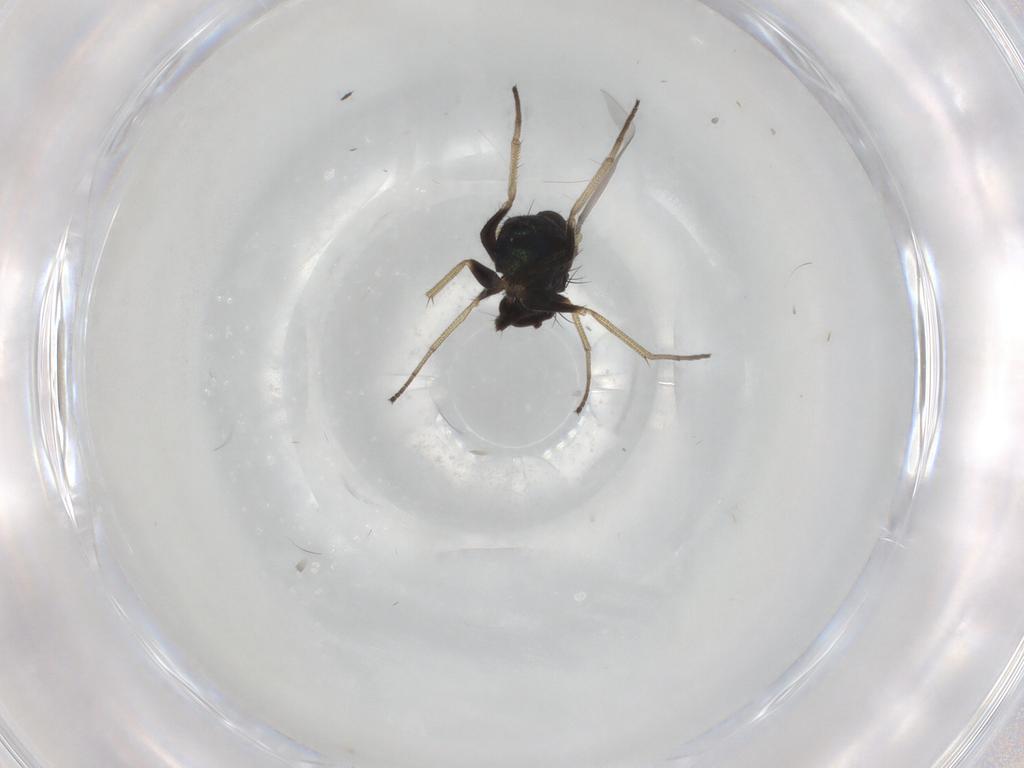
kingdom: Animalia
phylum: Arthropoda
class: Insecta
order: Diptera
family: Dolichopodidae
